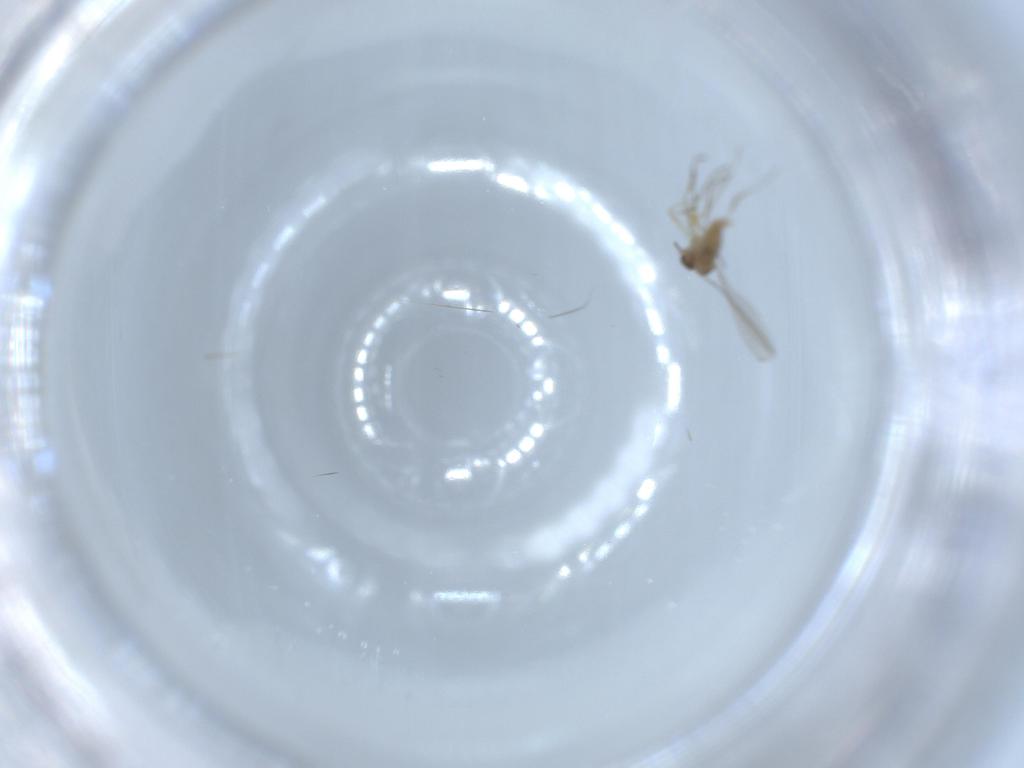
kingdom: Animalia
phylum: Arthropoda
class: Insecta
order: Diptera
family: Cecidomyiidae
